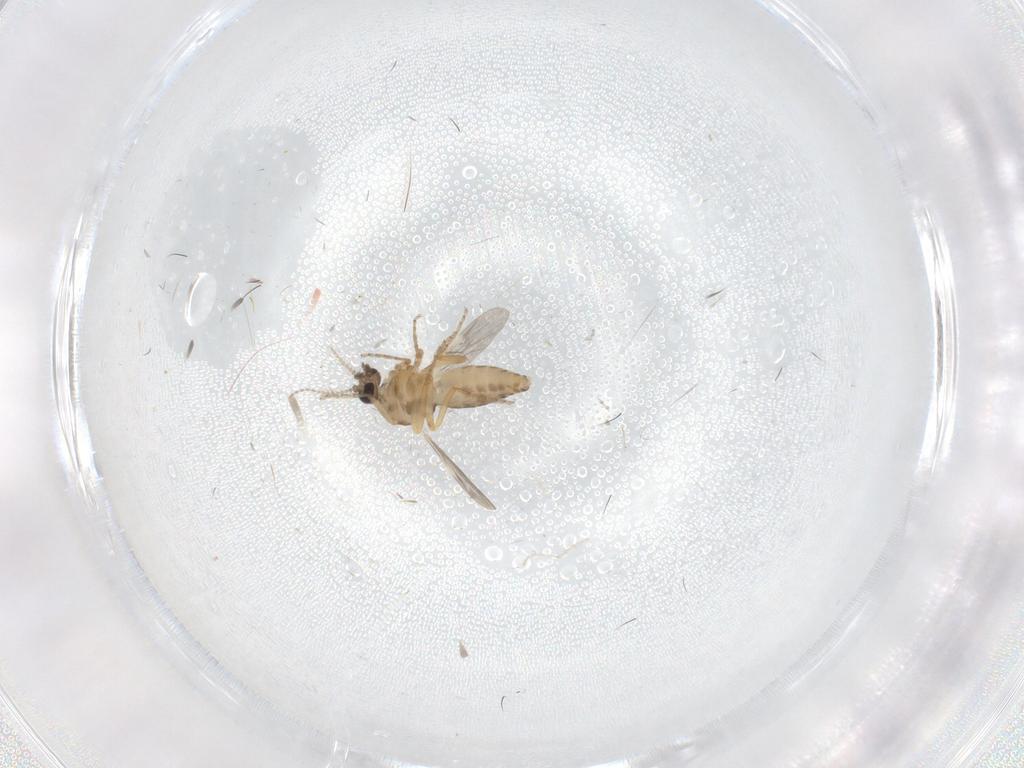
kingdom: Animalia
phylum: Arthropoda
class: Insecta
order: Diptera
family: Ceratopogonidae
